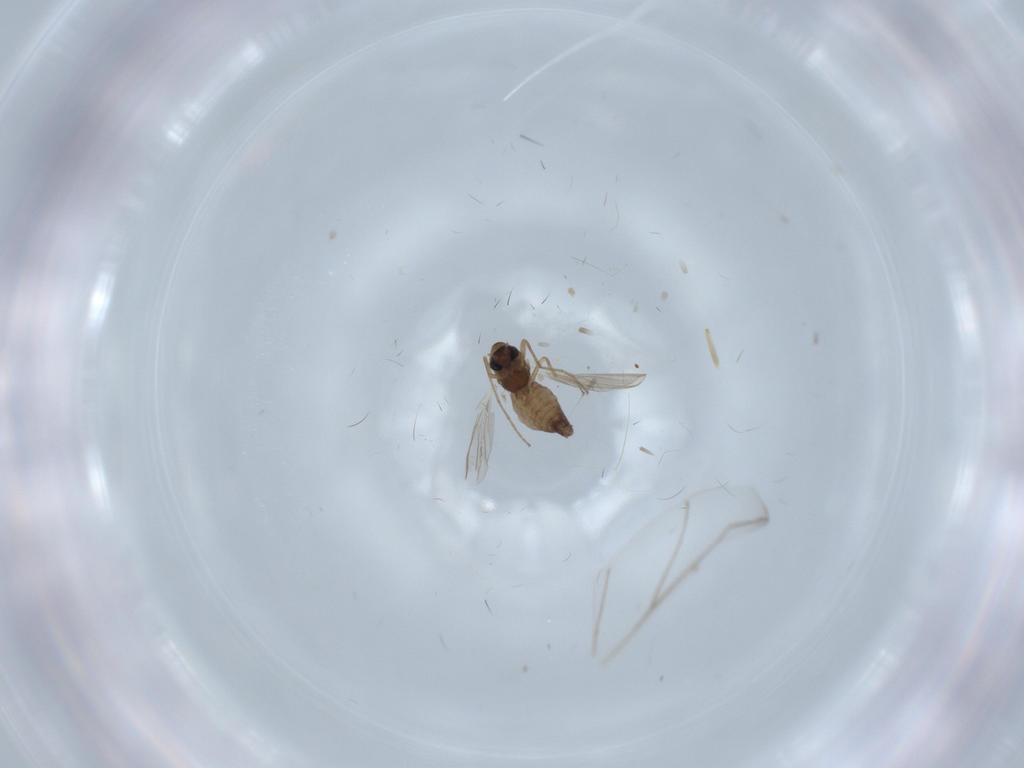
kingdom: Animalia
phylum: Arthropoda
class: Insecta
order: Diptera
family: Chironomidae
